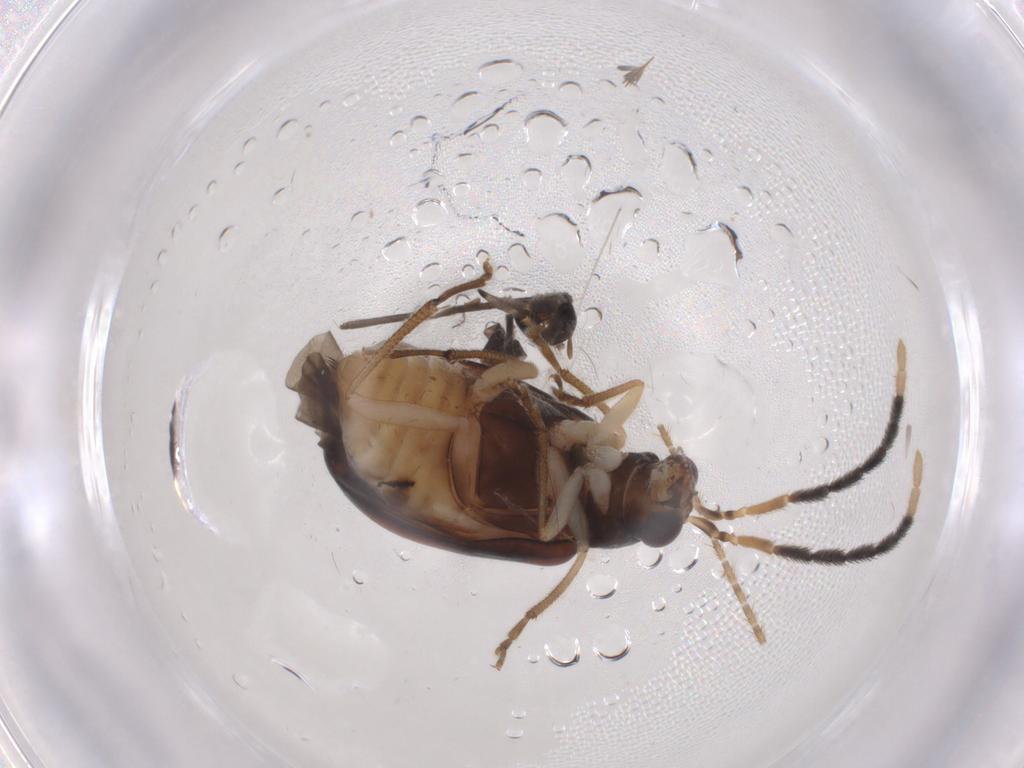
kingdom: Animalia
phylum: Arthropoda
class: Insecta
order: Coleoptera
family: Chrysomelidae
